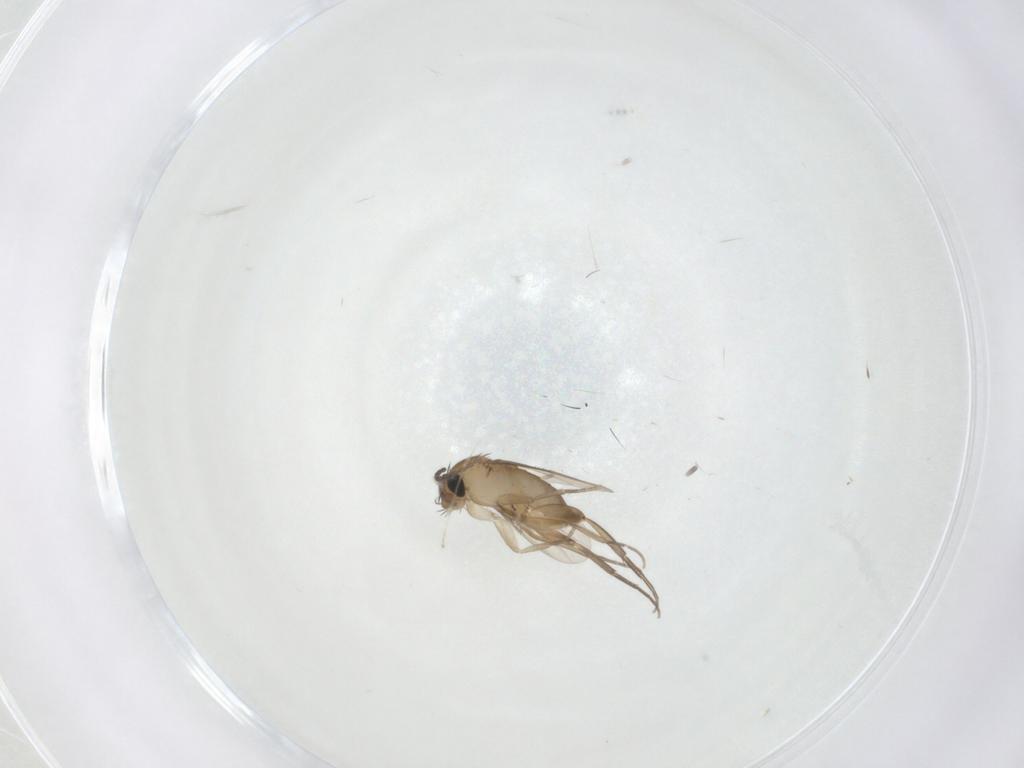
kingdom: Animalia
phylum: Arthropoda
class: Insecta
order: Diptera
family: Phoridae
